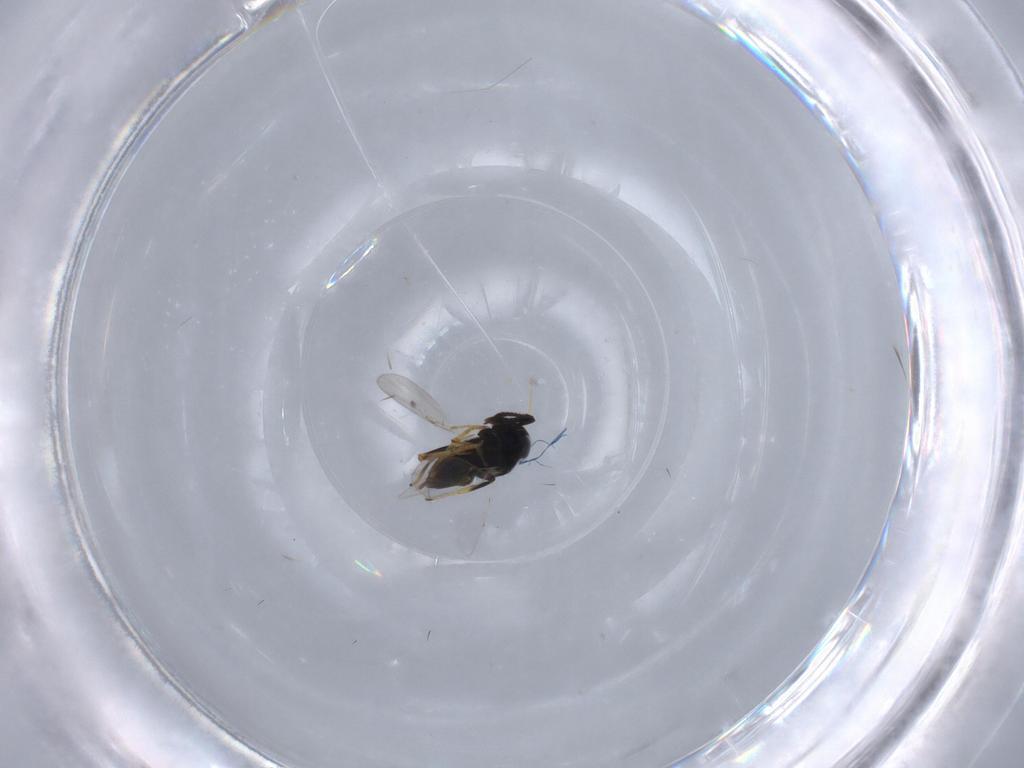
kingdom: Animalia
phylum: Arthropoda
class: Insecta
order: Hymenoptera
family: Encyrtidae
